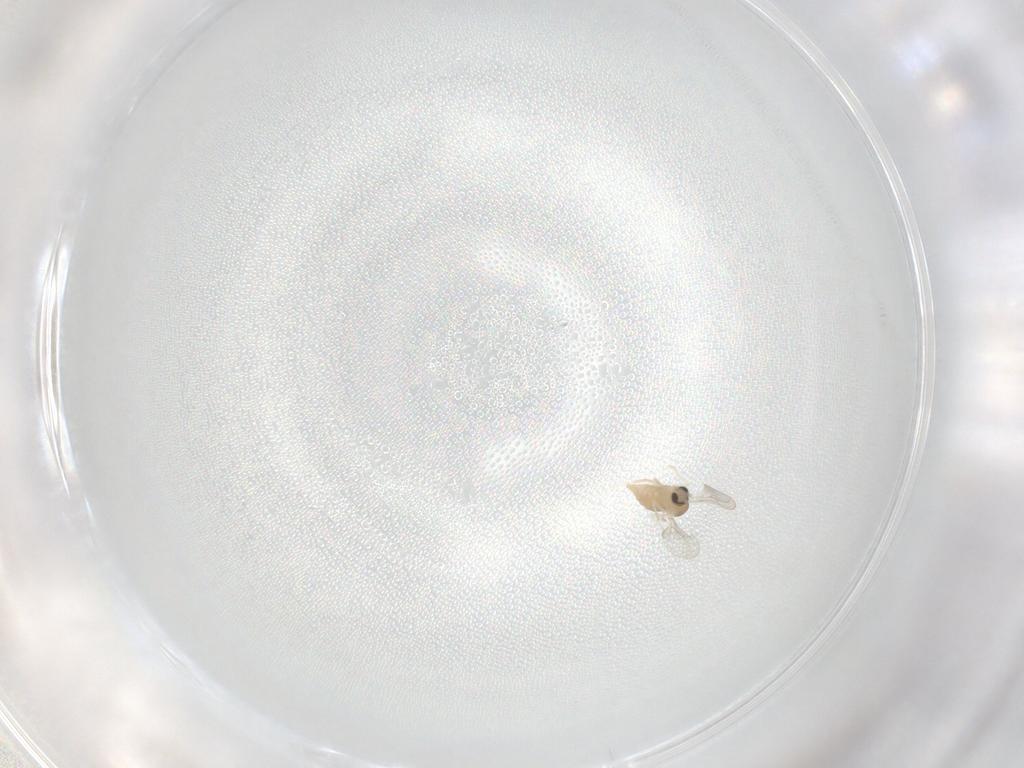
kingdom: Animalia
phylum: Arthropoda
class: Insecta
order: Diptera
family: Cecidomyiidae
